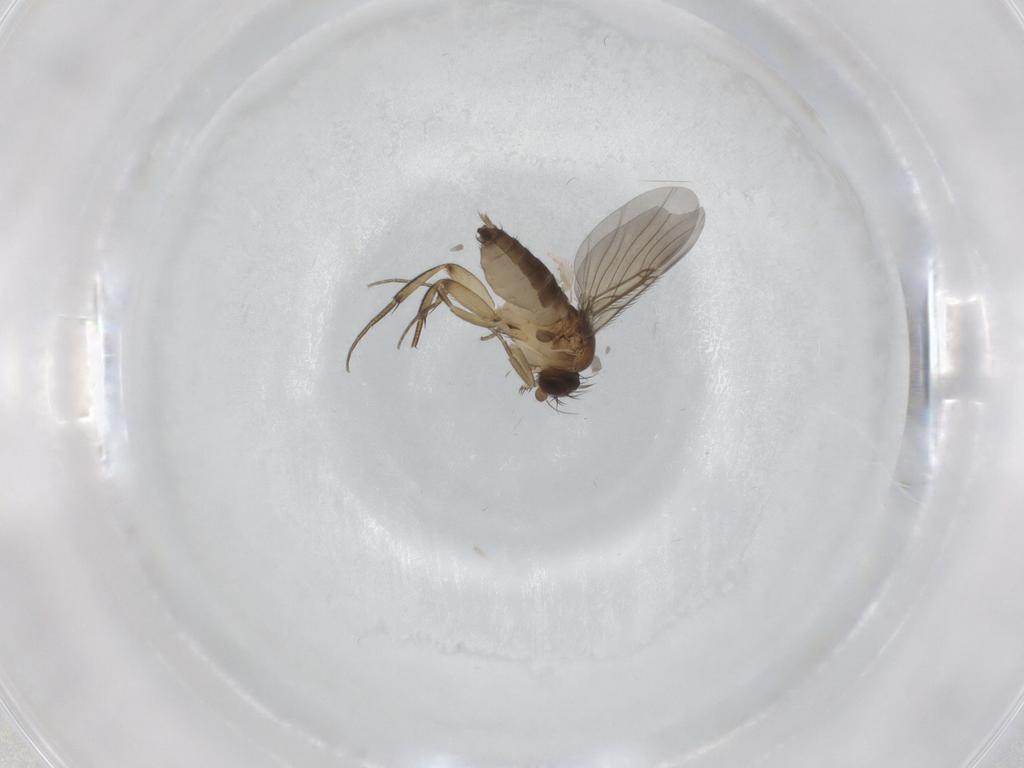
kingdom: Animalia
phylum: Arthropoda
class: Insecta
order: Diptera
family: Phoridae
